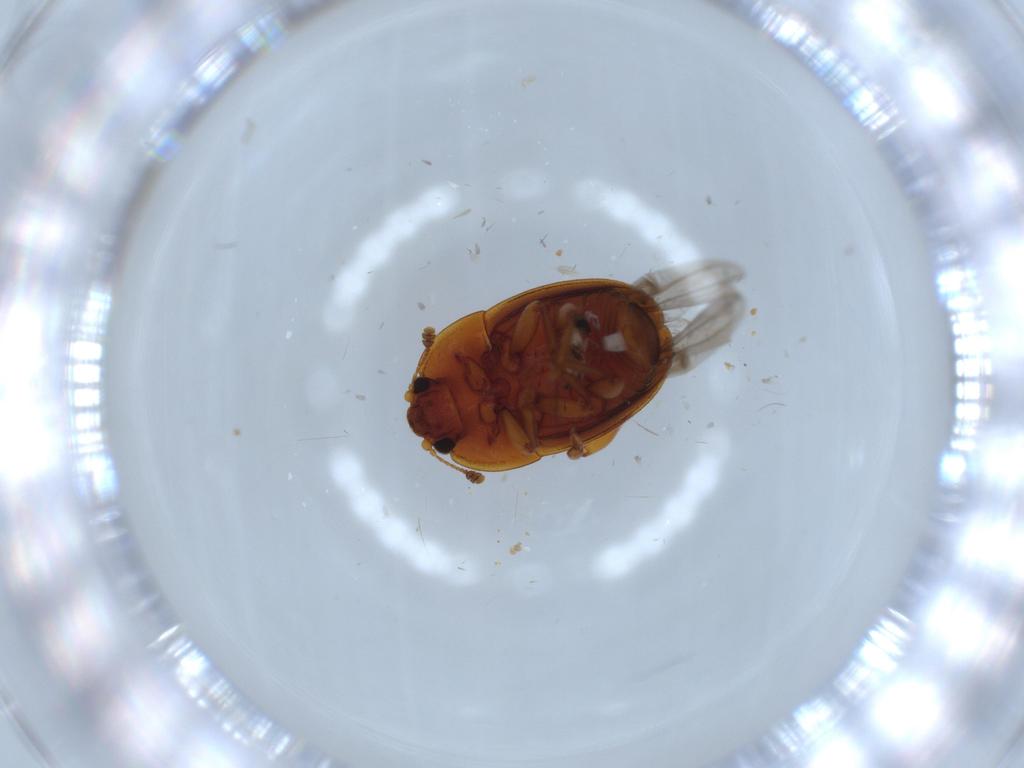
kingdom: Animalia
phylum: Arthropoda
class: Insecta
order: Coleoptera
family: Nitidulidae
